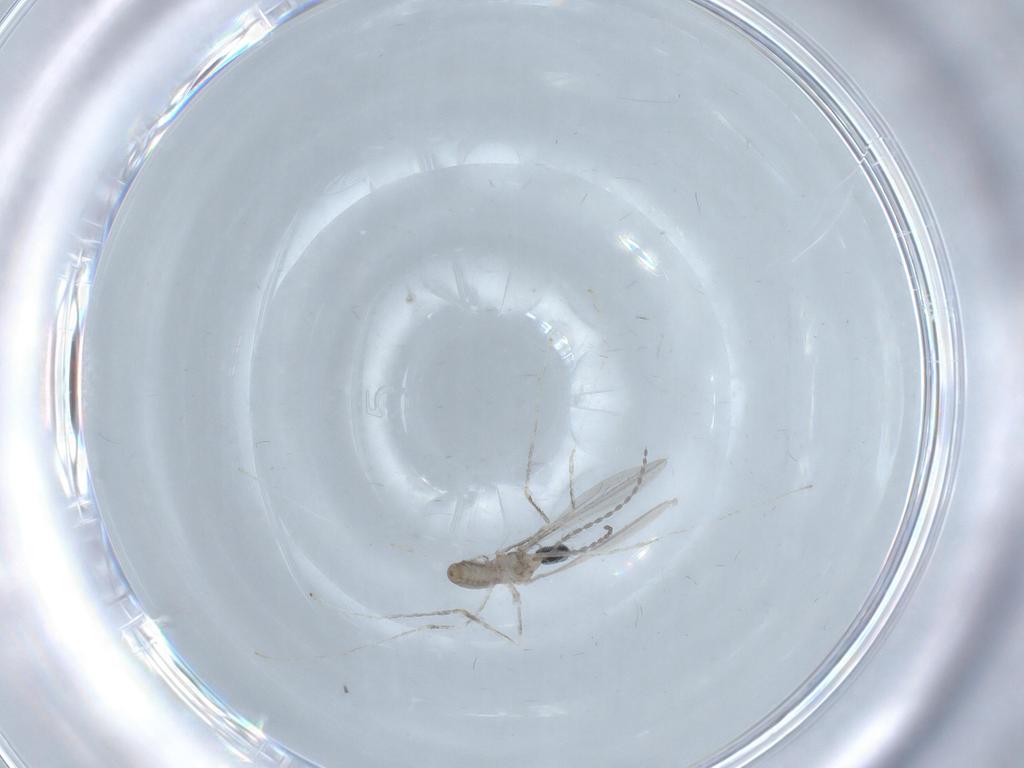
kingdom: Animalia
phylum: Arthropoda
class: Insecta
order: Diptera
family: Cecidomyiidae
